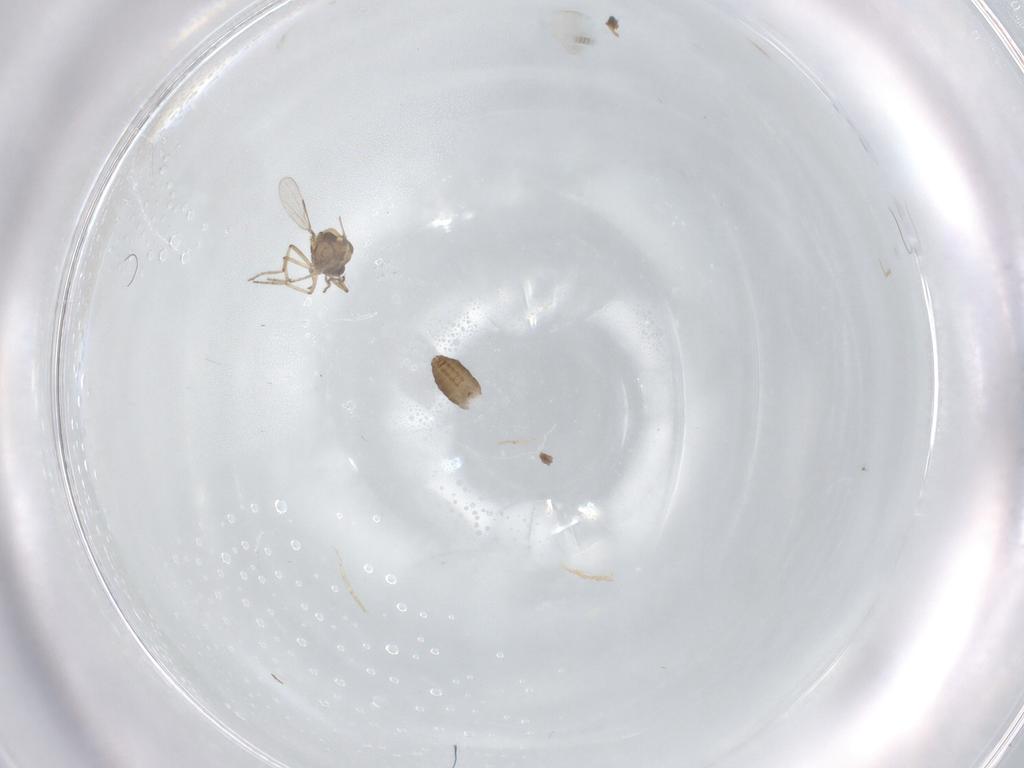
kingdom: Animalia
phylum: Arthropoda
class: Insecta
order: Diptera
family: Ceratopogonidae
